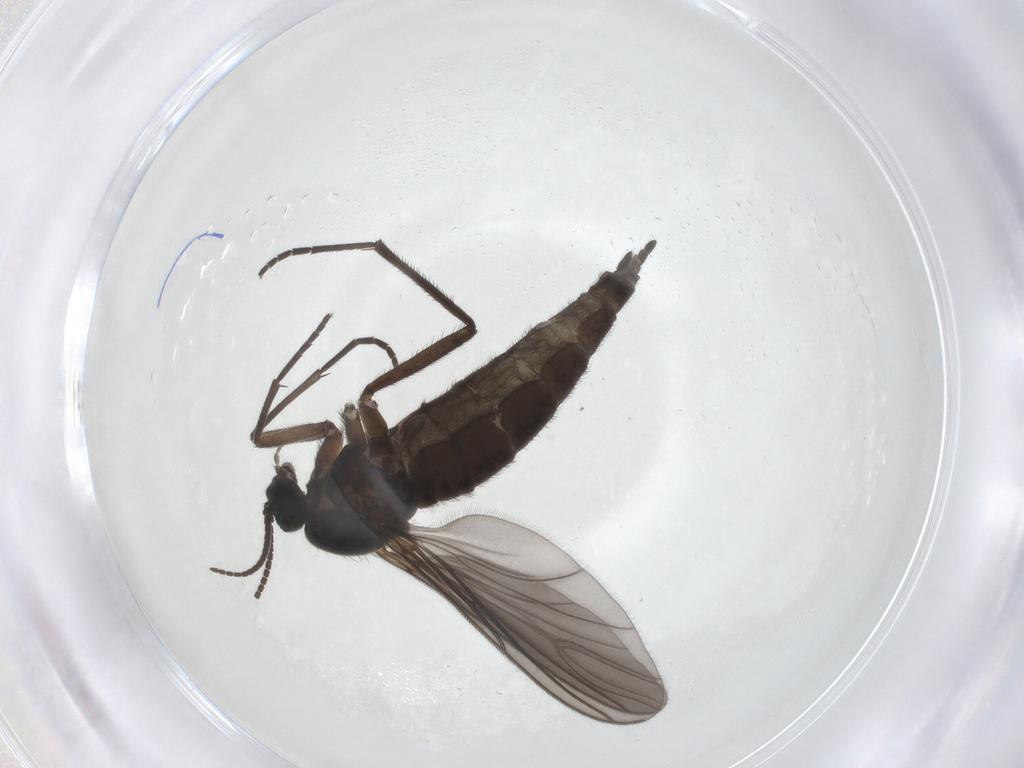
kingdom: Animalia
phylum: Arthropoda
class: Insecta
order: Diptera
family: Sciaridae
